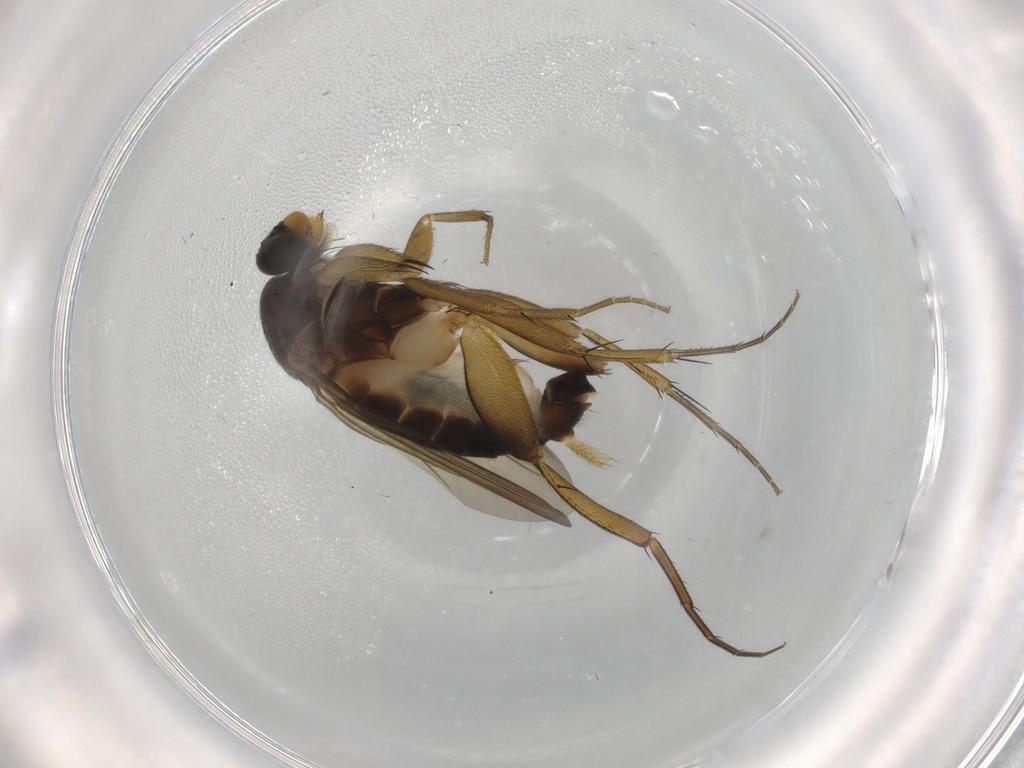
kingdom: Animalia
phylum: Arthropoda
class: Insecta
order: Diptera
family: Phoridae
